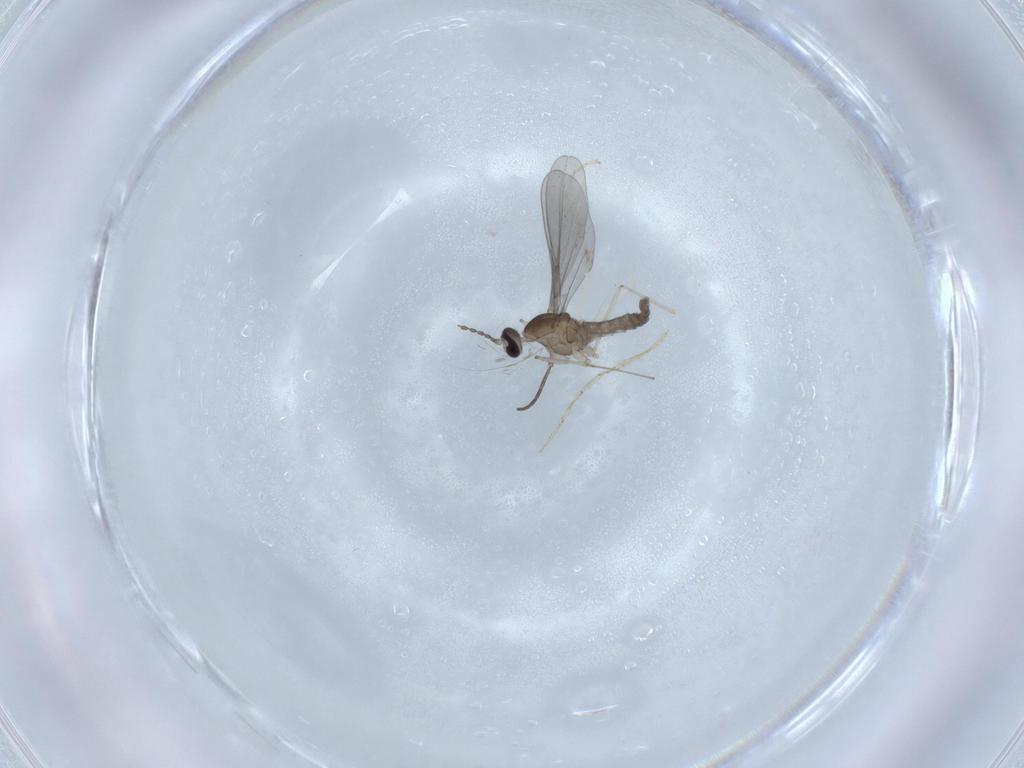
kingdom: Animalia
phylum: Arthropoda
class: Insecta
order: Diptera
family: Cecidomyiidae
